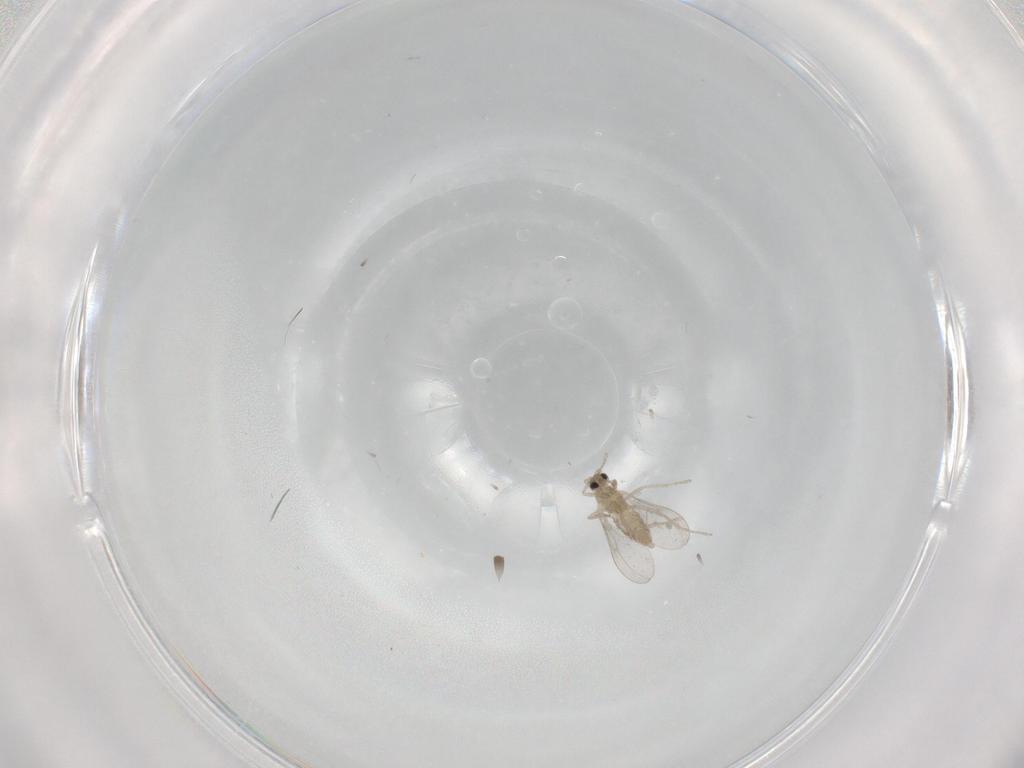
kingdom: Animalia
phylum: Arthropoda
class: Insecta
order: Diptera
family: Cecidomyiidae
